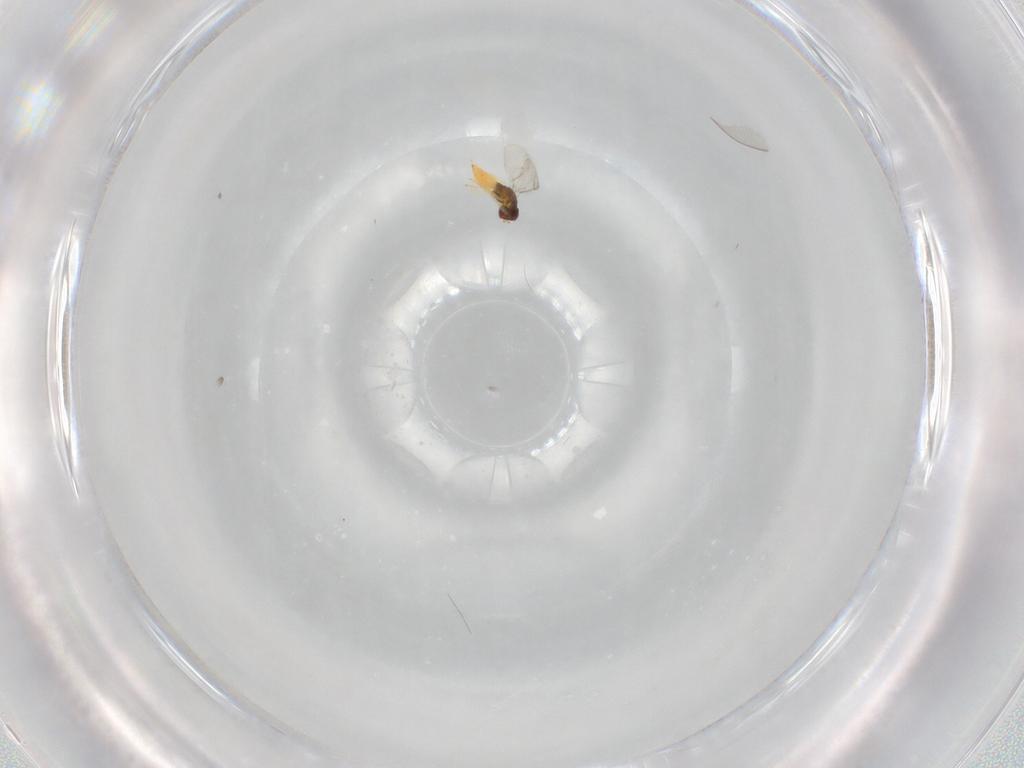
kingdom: Animalia
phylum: Arthropoda
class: Insecta
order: Hymenoptera
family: Eulophidae
